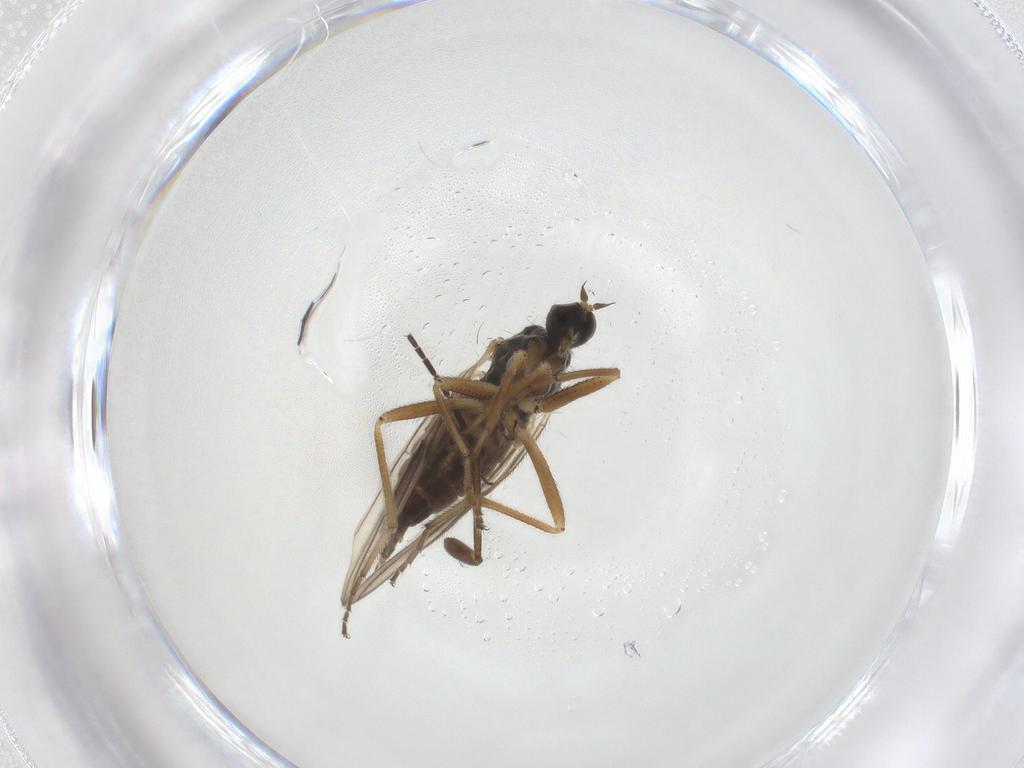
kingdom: Animalia
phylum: Arthropoda
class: Insecta
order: Diptera
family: Hybotidae
